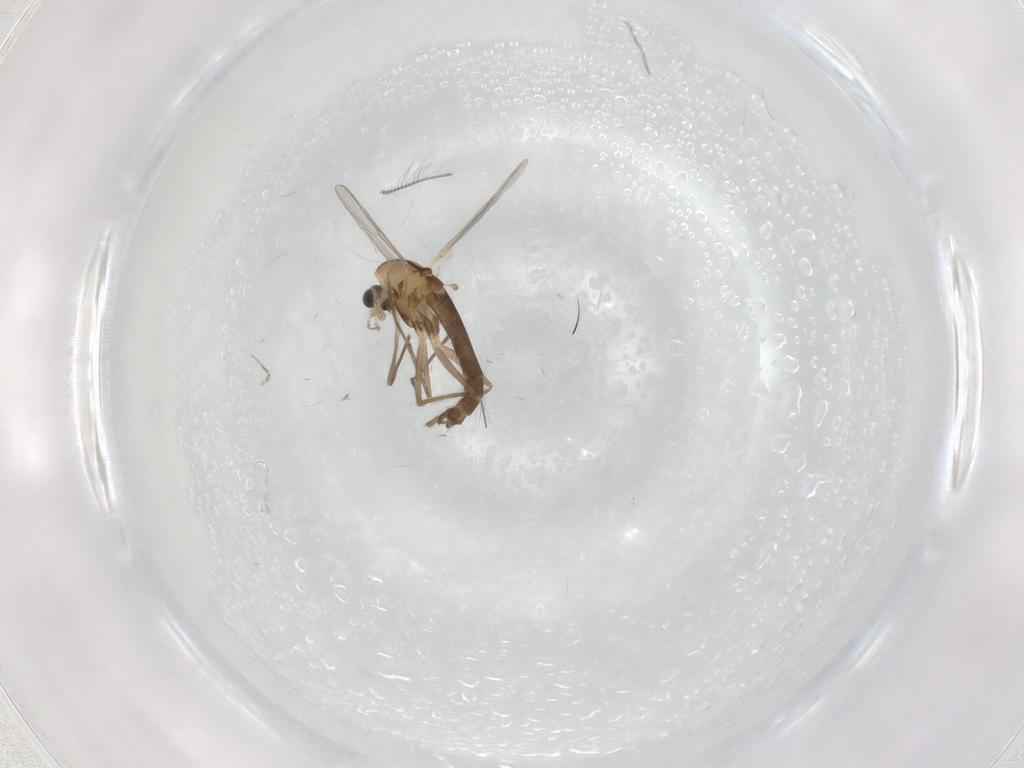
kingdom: Animalia
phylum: Arthropoda
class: Insecta
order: Diptera
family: Chironomidae
